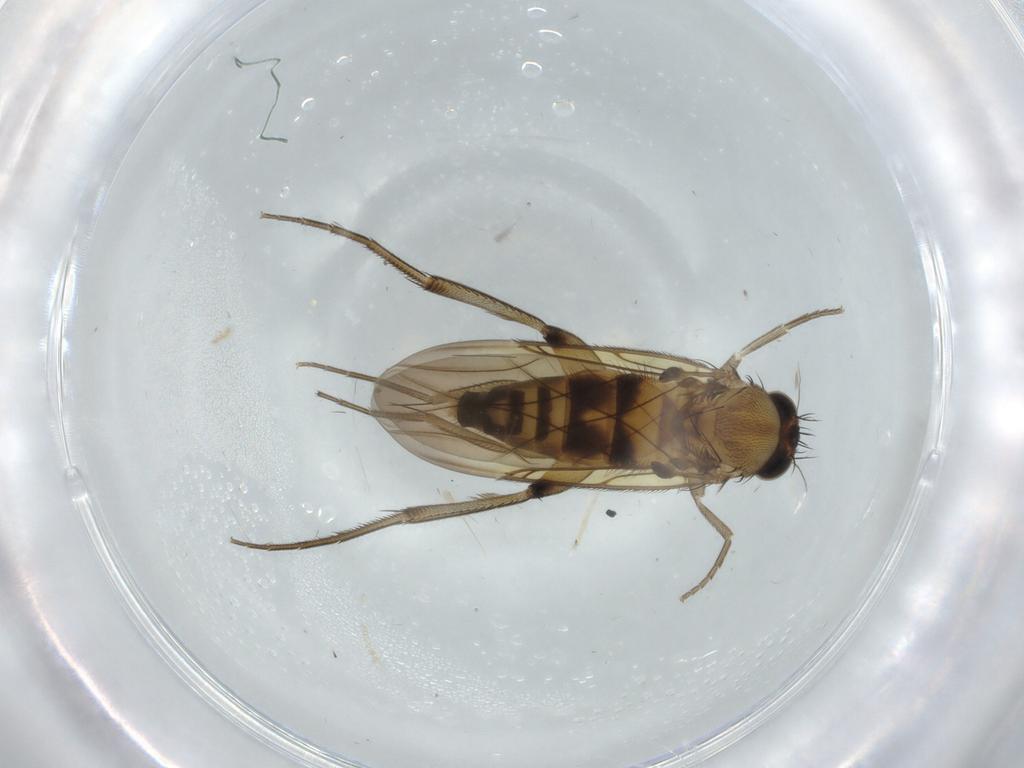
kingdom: Animalia
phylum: Arthropoda
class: Insecta
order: Diptera
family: Phoridae
